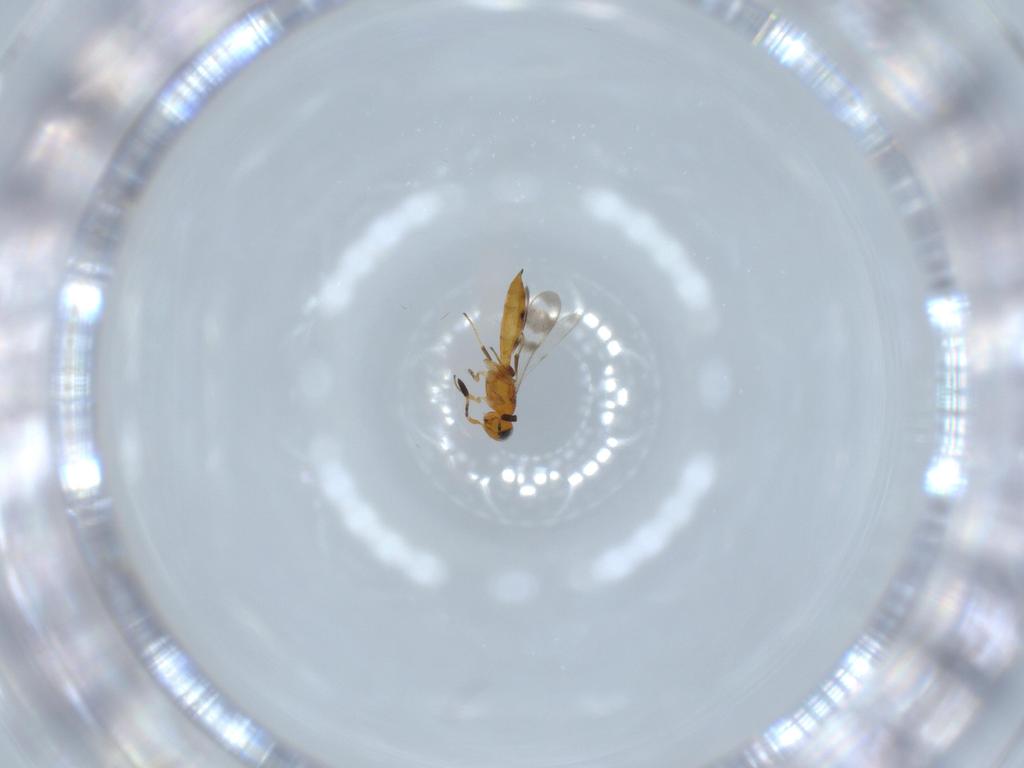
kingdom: Animalia
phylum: Arthropoda
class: Insecta
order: Hymenoptera
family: Scelionidae
